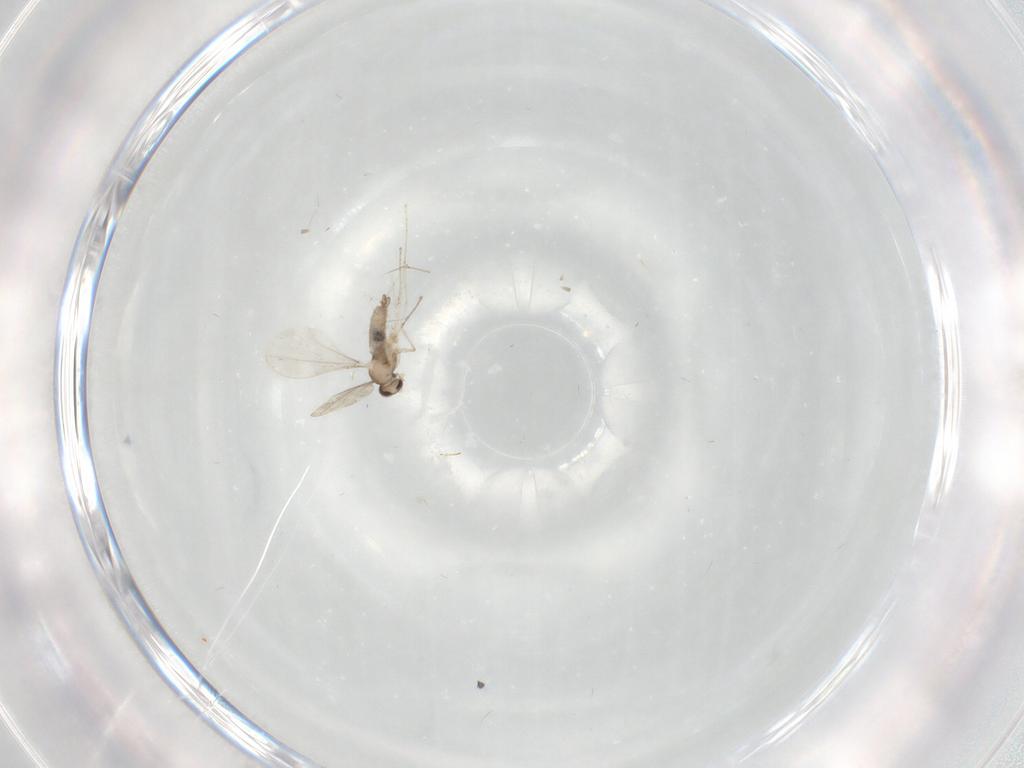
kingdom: Animalia
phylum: Arthropoda
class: Insecta
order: Diptera
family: Cecidomyiidae
